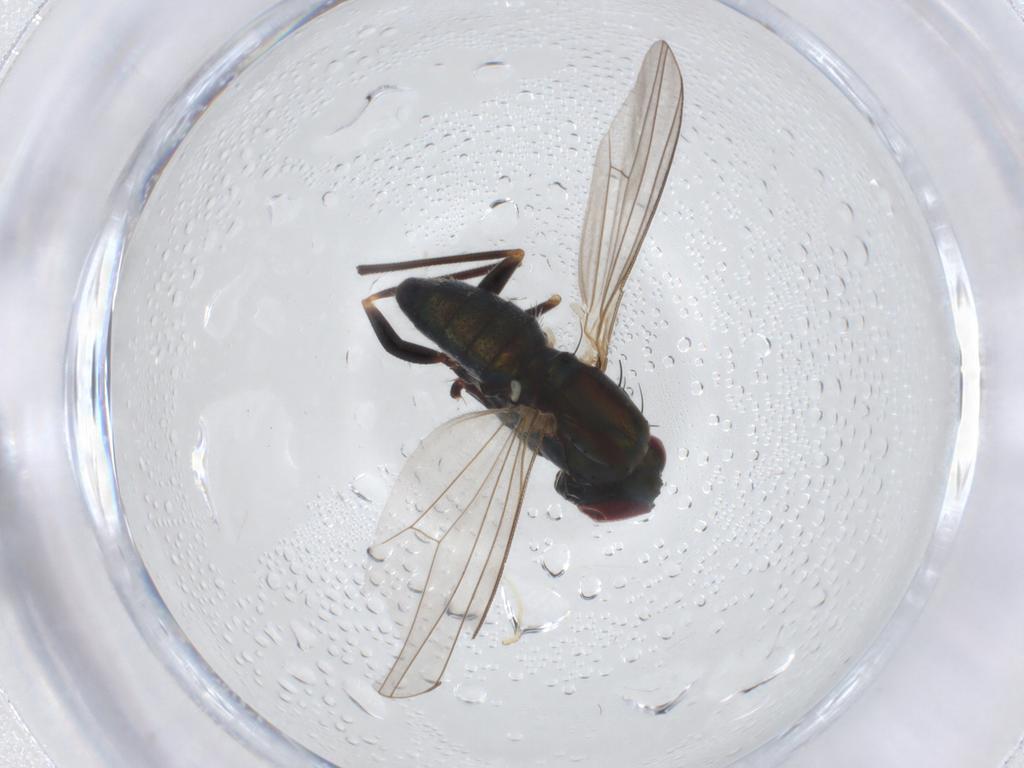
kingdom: Animalia
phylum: Arthropoda
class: Insecta
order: Diptera
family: Dolichopodidae
